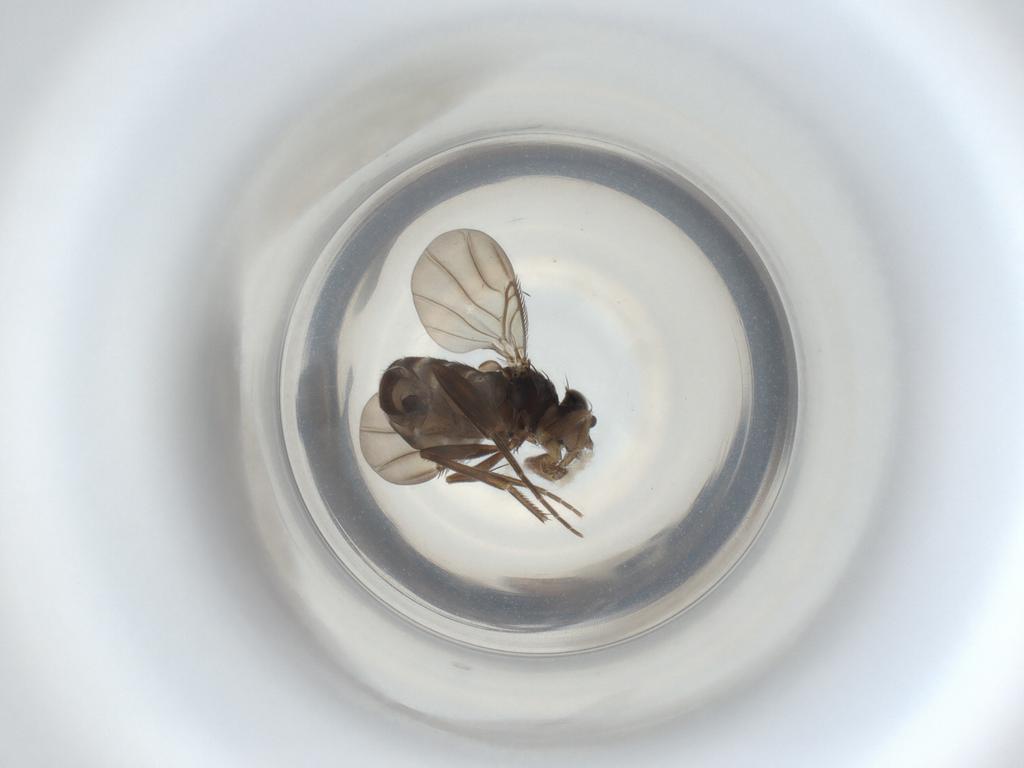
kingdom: Animalia
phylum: Arthropoda
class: Insecta
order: Diptera
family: Phoridae
